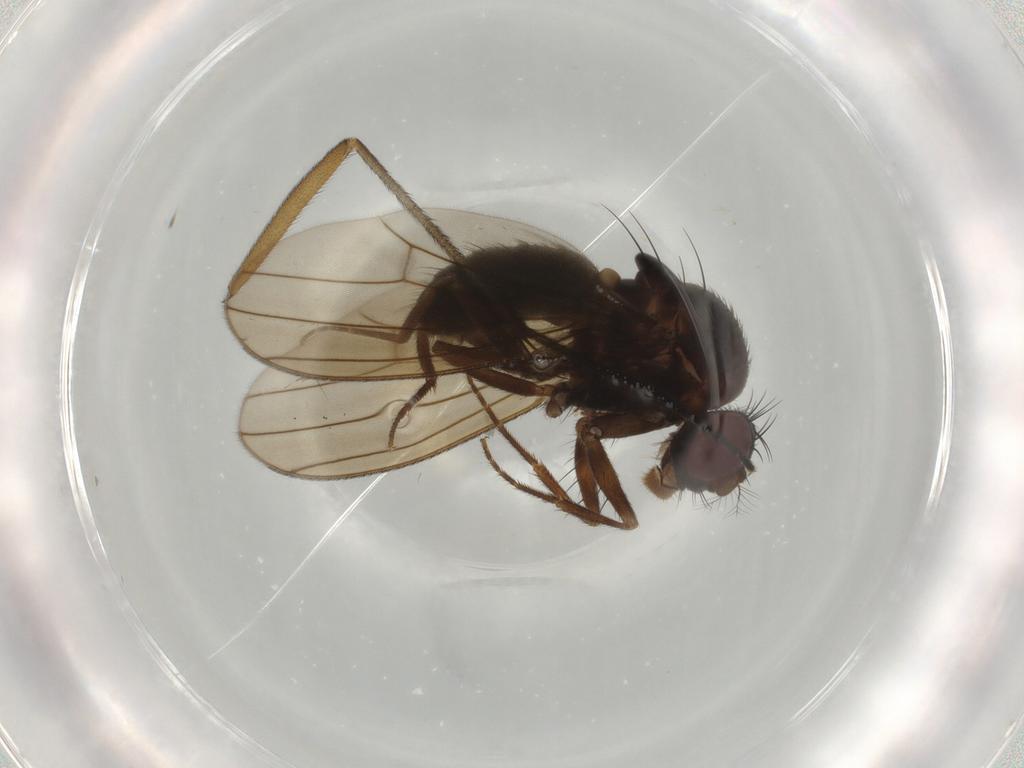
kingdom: Animalia
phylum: Arthropoda
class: Insecta
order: Diptera
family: Drosophilidae
